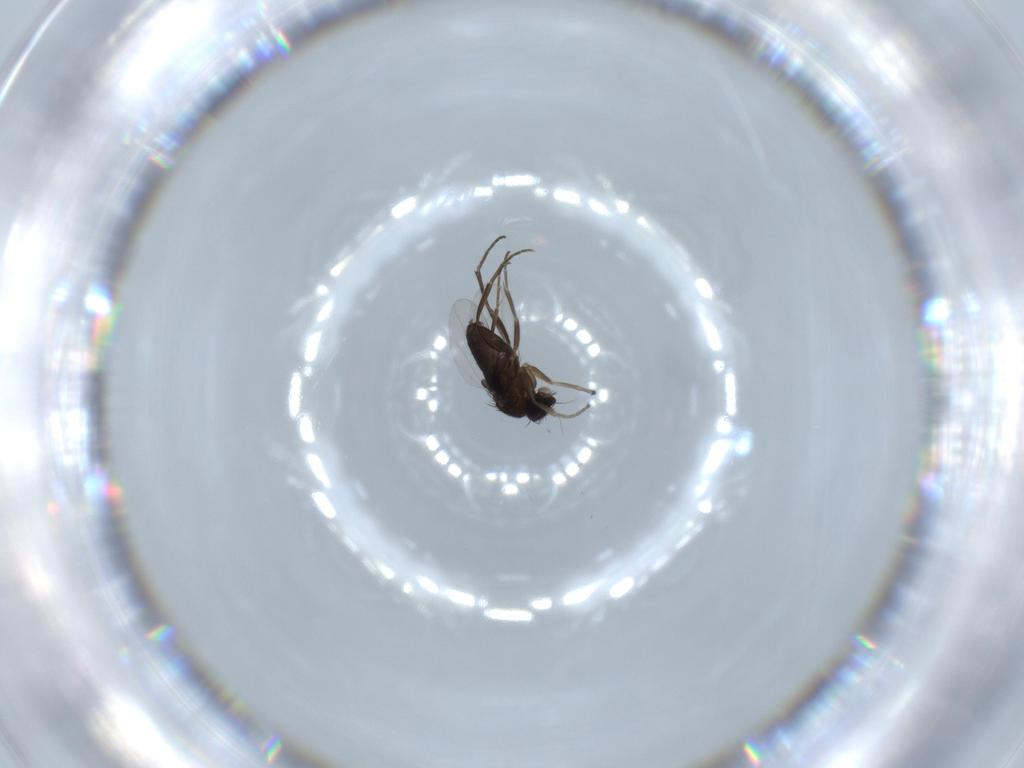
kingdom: Animalia
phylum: Arthropoda
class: Insecta
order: Diptera
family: Phoridae
